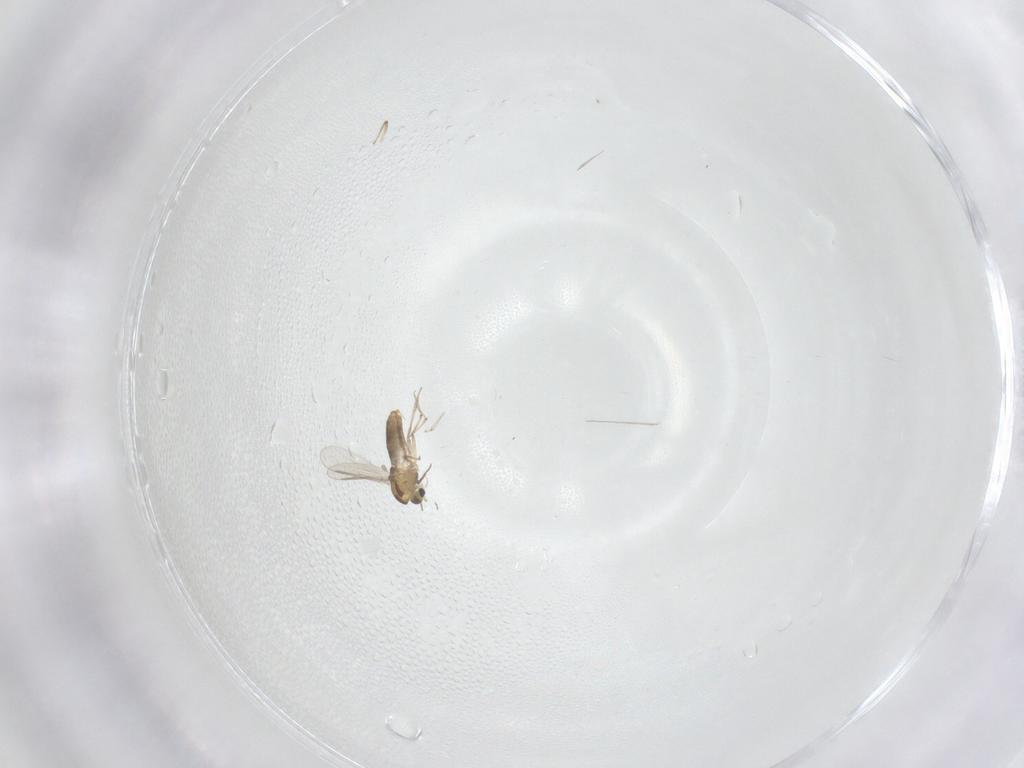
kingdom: Animalia
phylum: Arthropoda
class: Insecta
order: Diptera
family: Chironomidae
